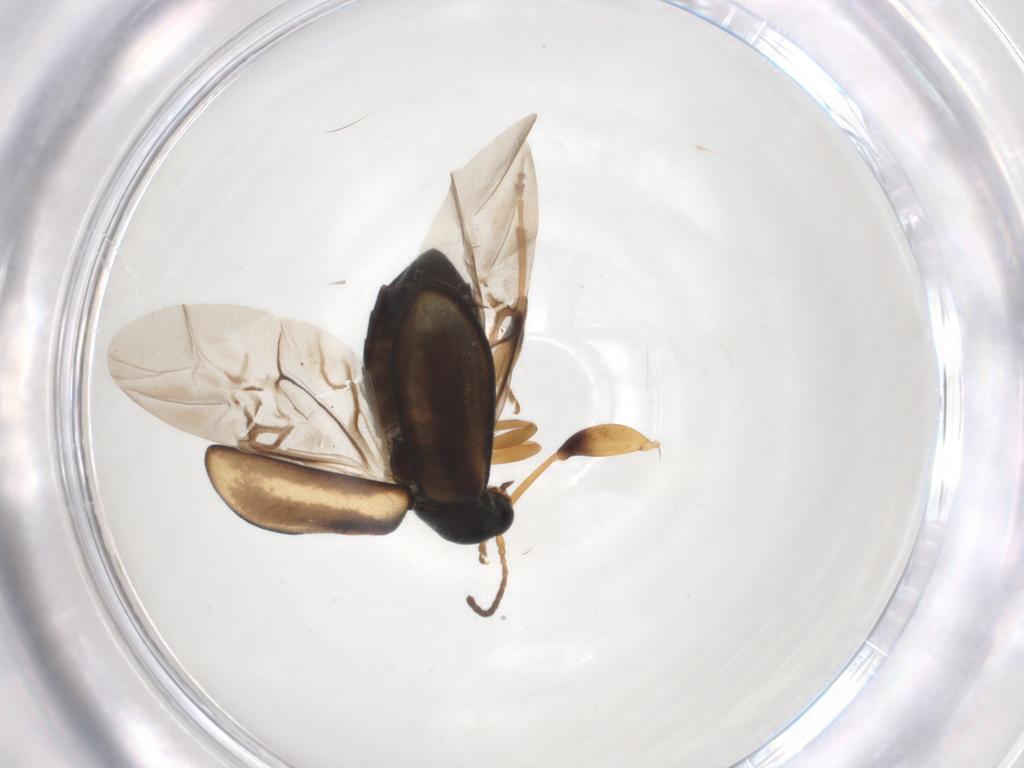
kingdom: Animalia
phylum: Arthropoda
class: Insecta
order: Coleoptera
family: Chrysomelidae
